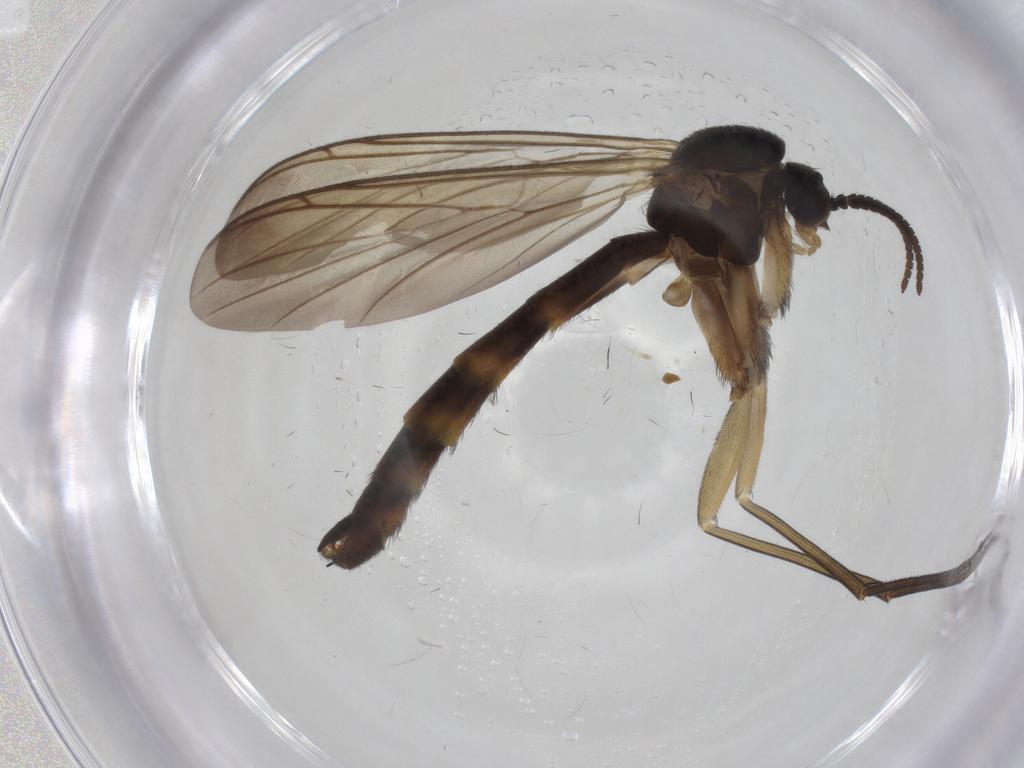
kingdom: Animalia
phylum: Arthropoda
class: Insecta
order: Diptera
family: Keroplatidae
